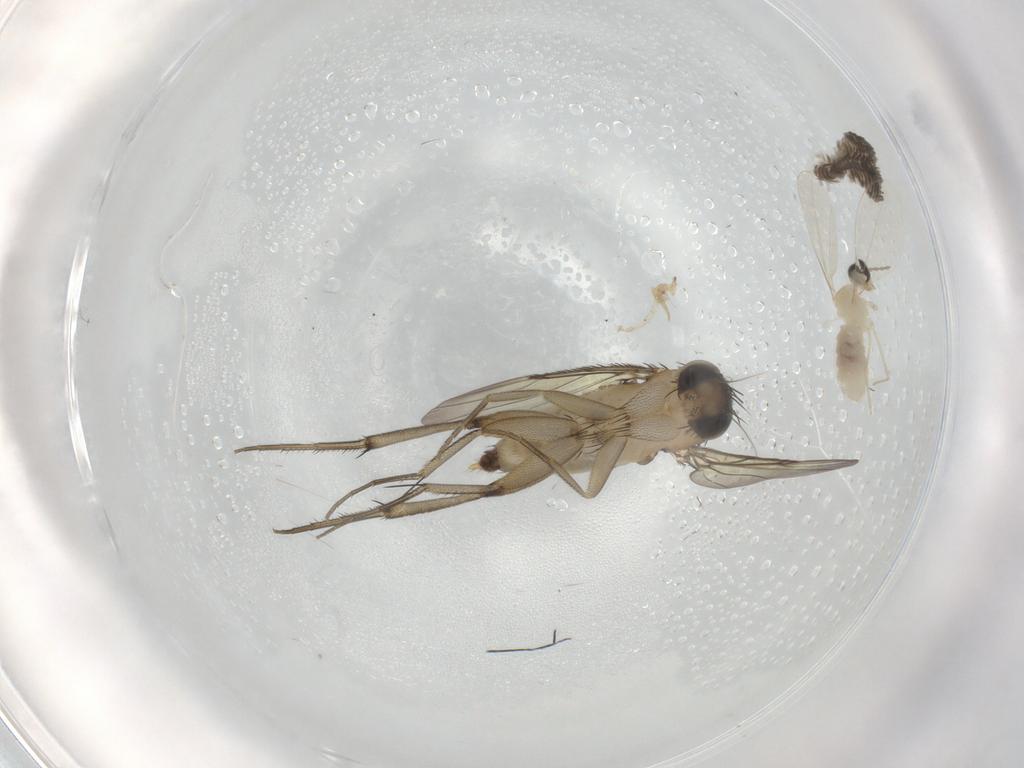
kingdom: Animalia
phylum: Arthropoda
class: Insecta
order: Diptera
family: Phoridae
